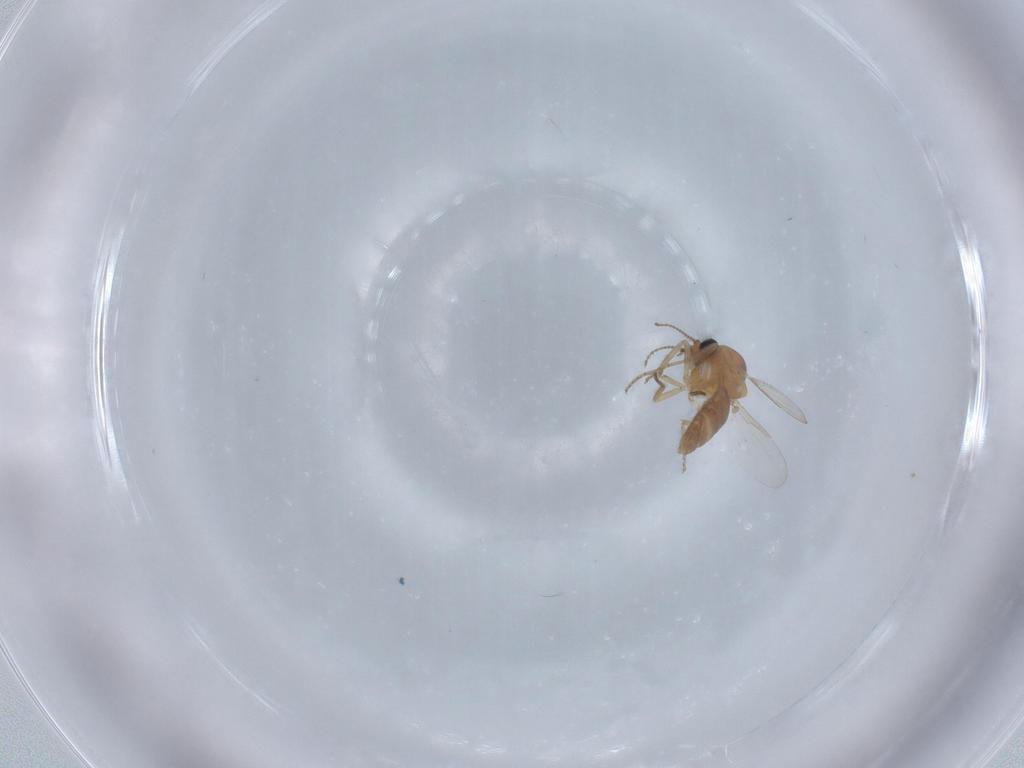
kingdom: Animalia
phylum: Arthropoda
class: Insecta
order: Diptera
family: Ceratopogonidae
